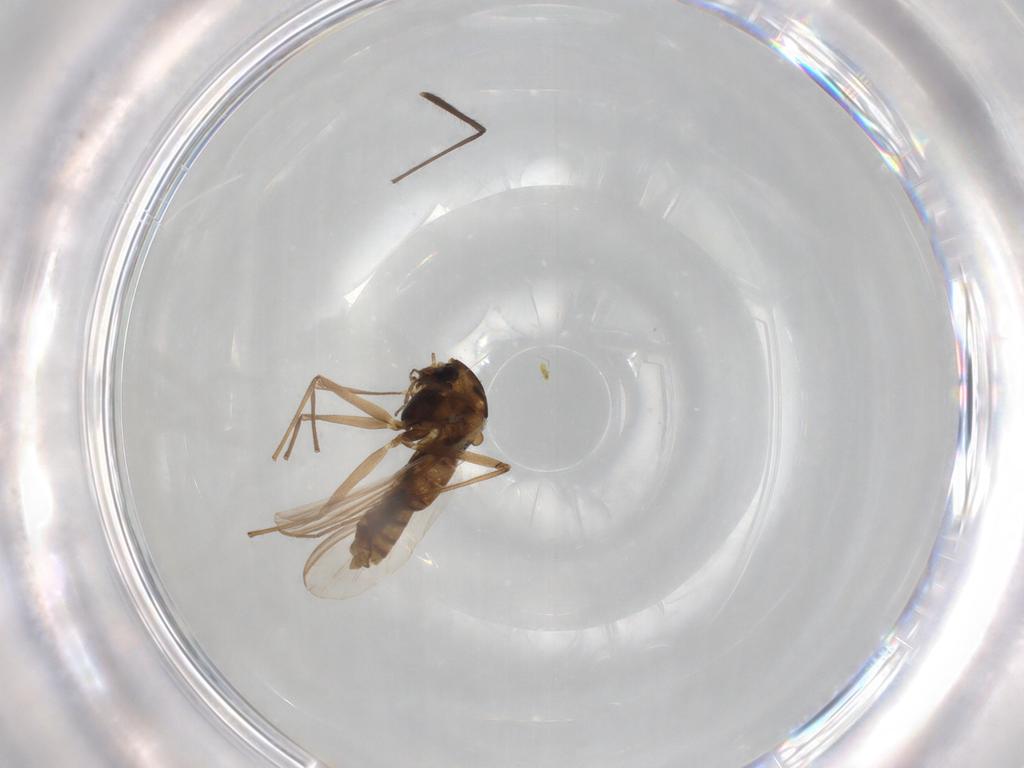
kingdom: Animalia
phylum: Arthropoda
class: Insecta
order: Diptera
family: Chironomidae
